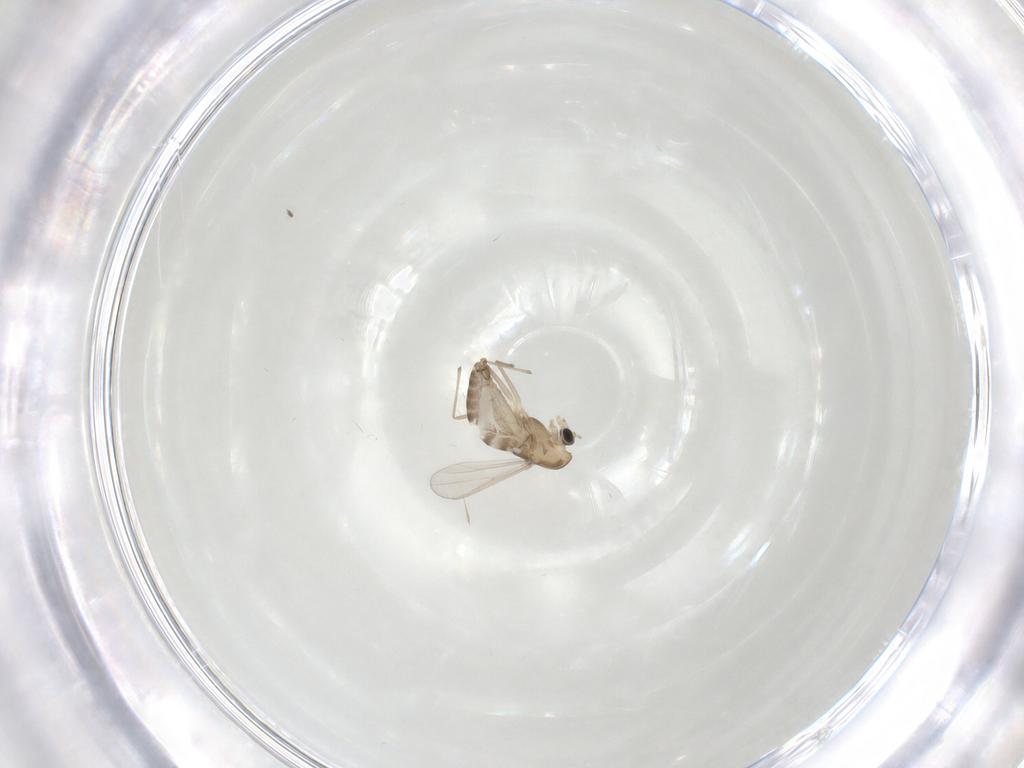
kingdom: Animalia
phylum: Arthropoda
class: Insecta
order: Diptera
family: Chironomidae
